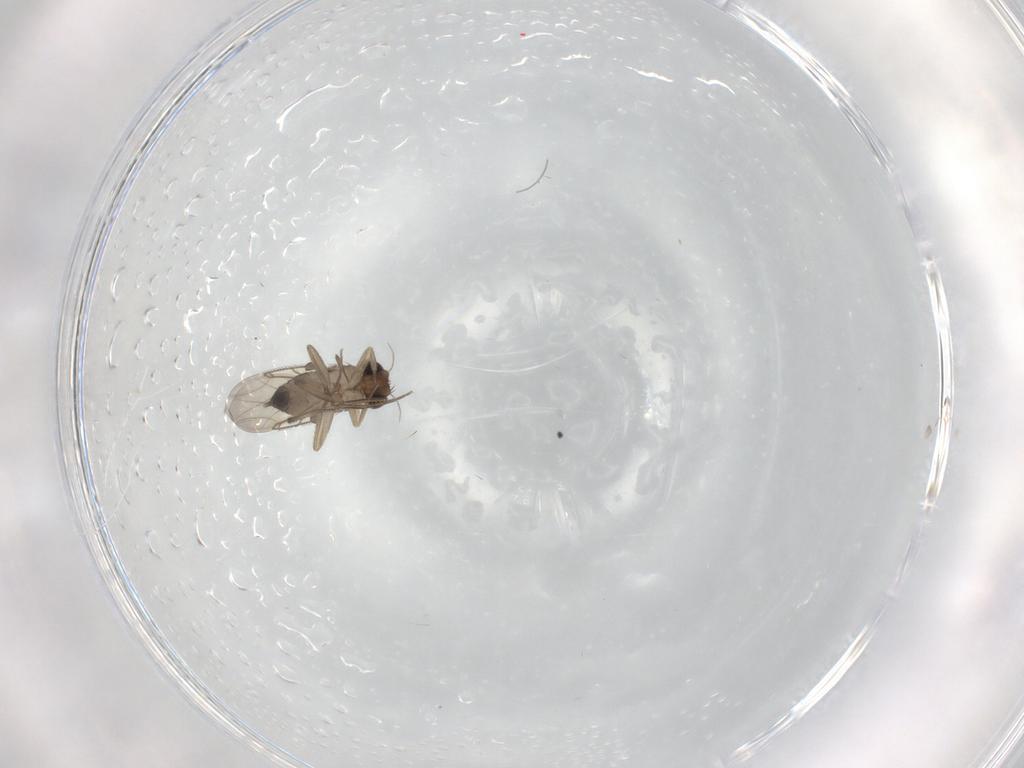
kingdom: Animalia
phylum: Arthropoda
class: Insecta
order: Diptera
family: Phoridae
